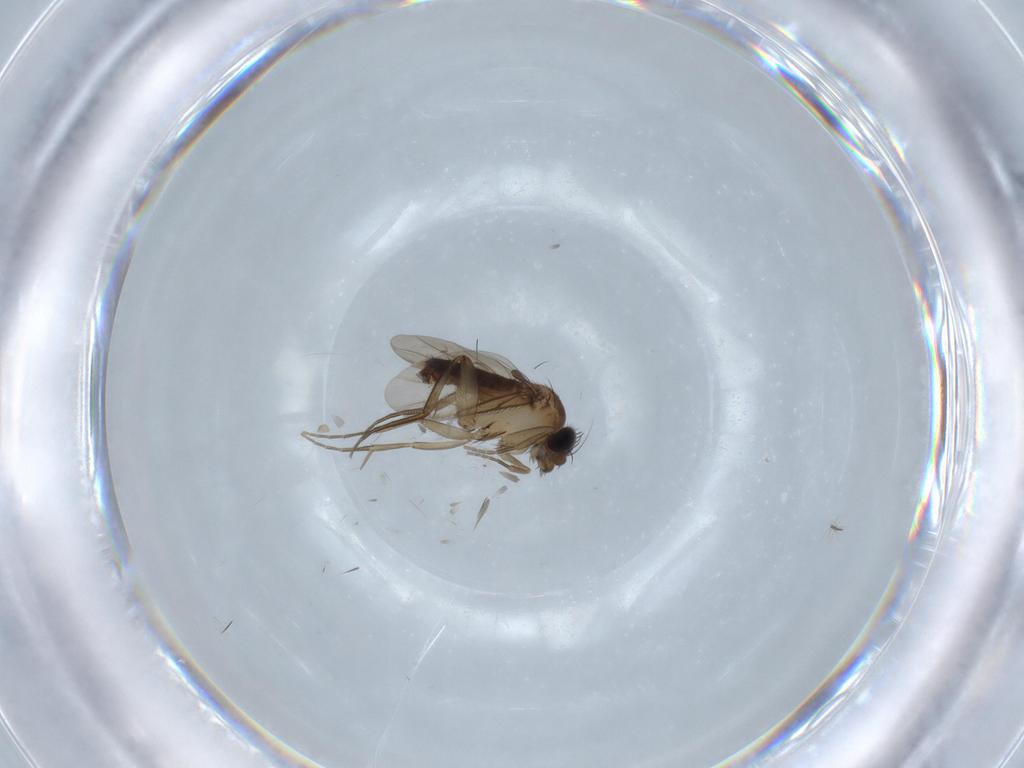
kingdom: Animalia
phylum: Arthropoda
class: Insecta
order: Diptera
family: Phoridae
